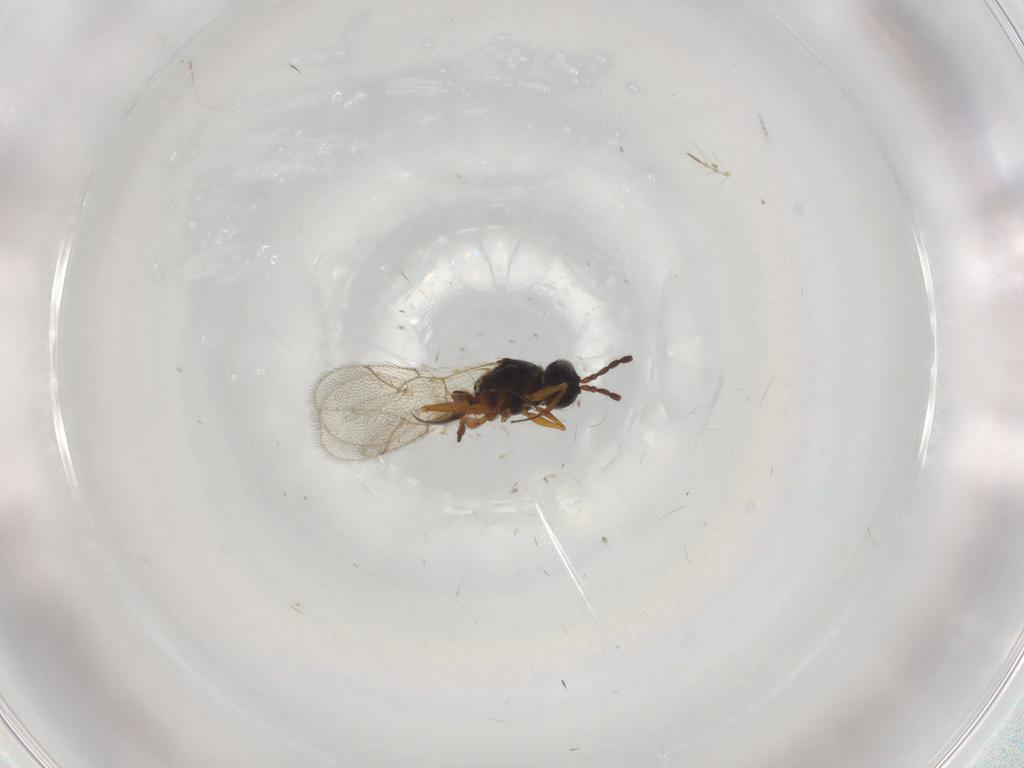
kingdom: Animalia
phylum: Arthropoda
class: Insecta
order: Hymenoptera
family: Figitidae
